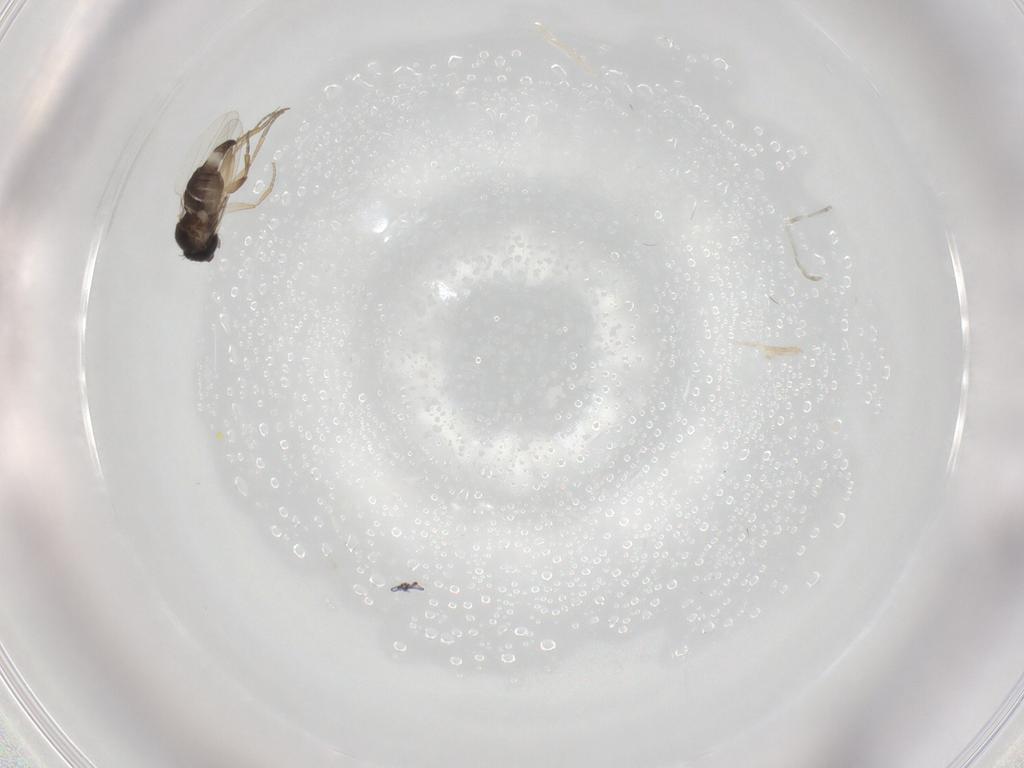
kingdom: Animalia
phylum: Arthropoda
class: Insecta
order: Diptera
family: Phoridae
